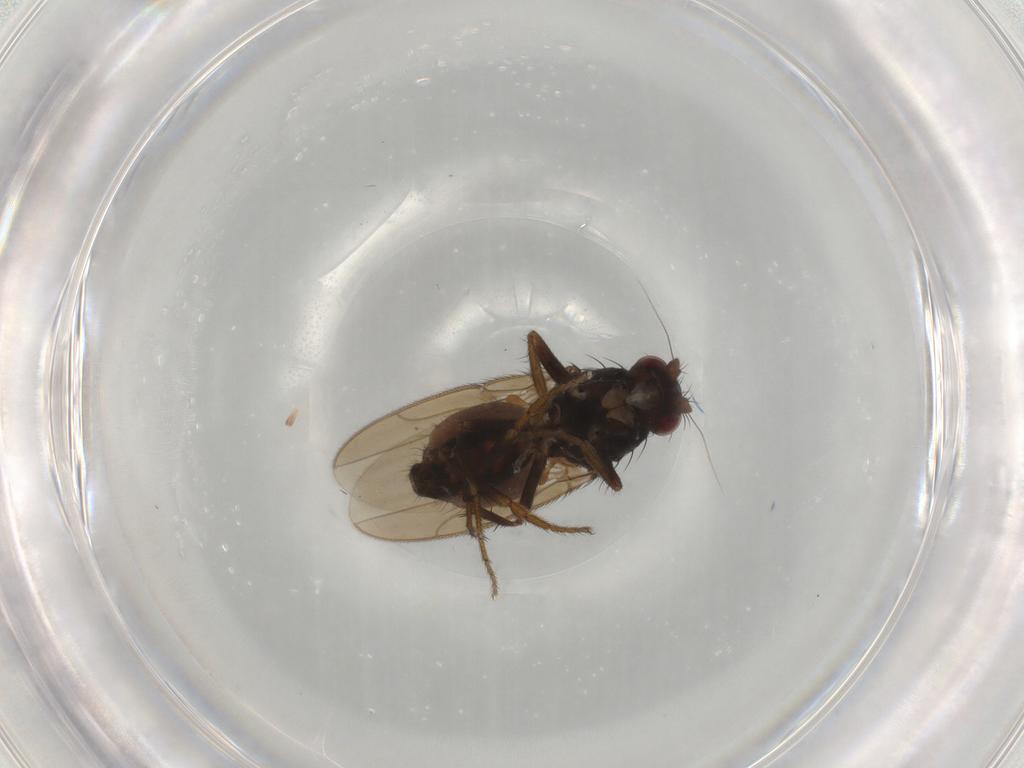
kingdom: Animalia
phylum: Arthropoda
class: Insecta
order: Diptera
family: Sphaeroceridae
